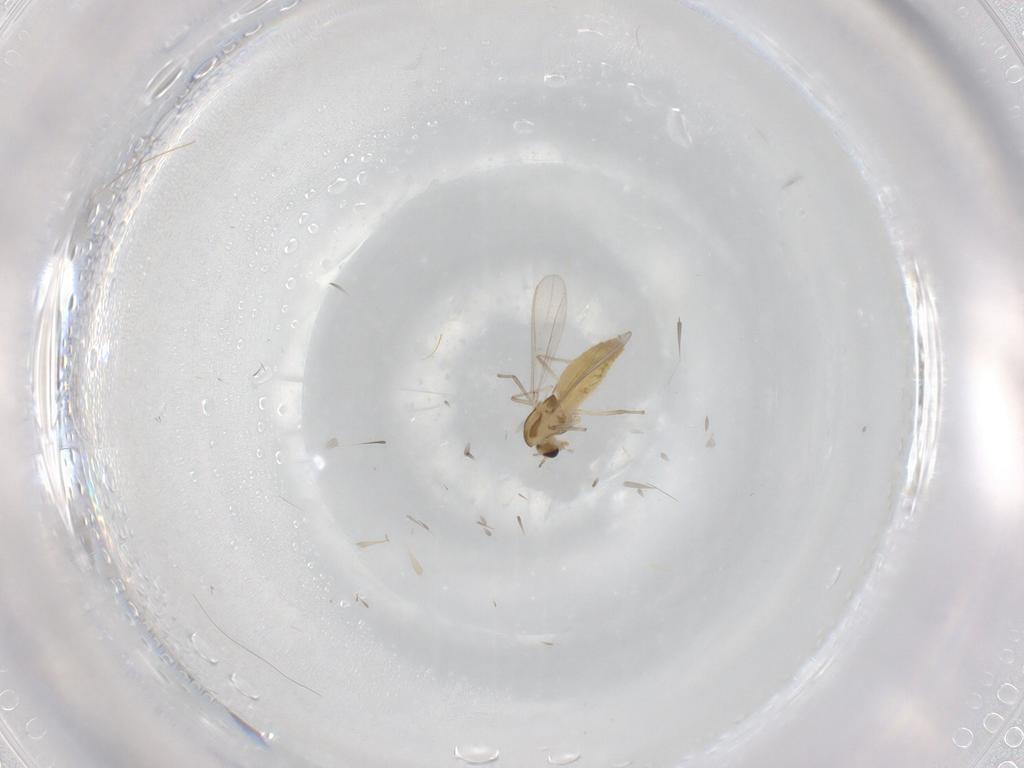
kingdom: Animalia
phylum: Arthropoda
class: Insecta
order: Diptera
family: Chironomidae
